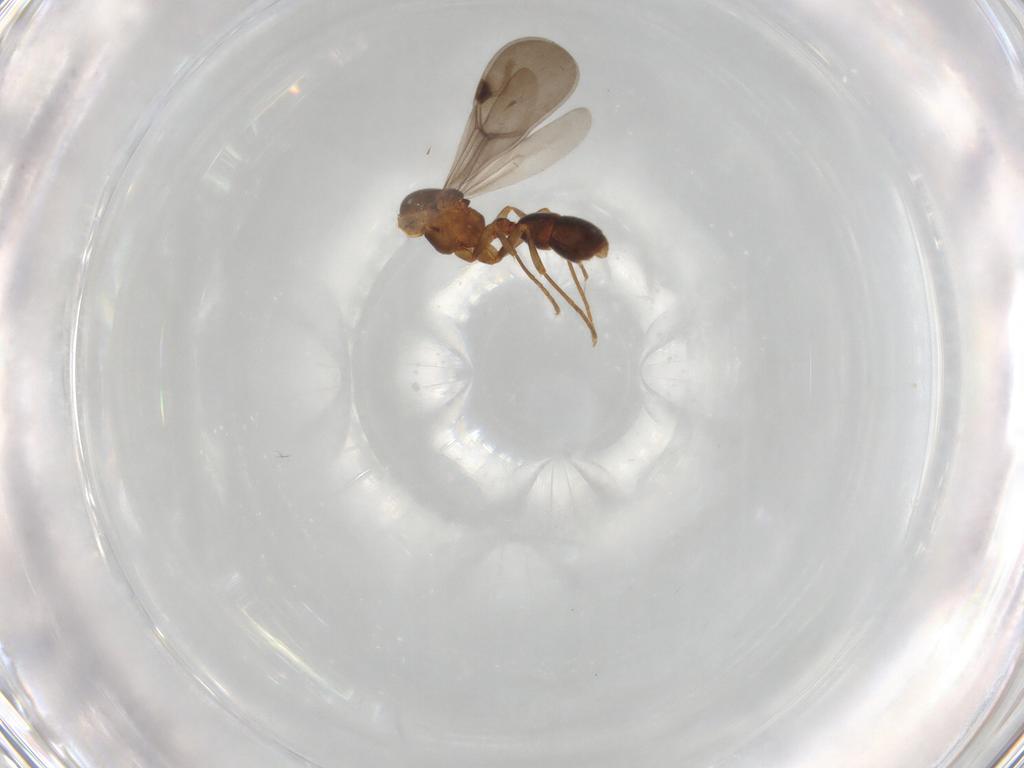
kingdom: Animalia
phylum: Arthropoda
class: Insecta
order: Hymenoptera
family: Formicidae
